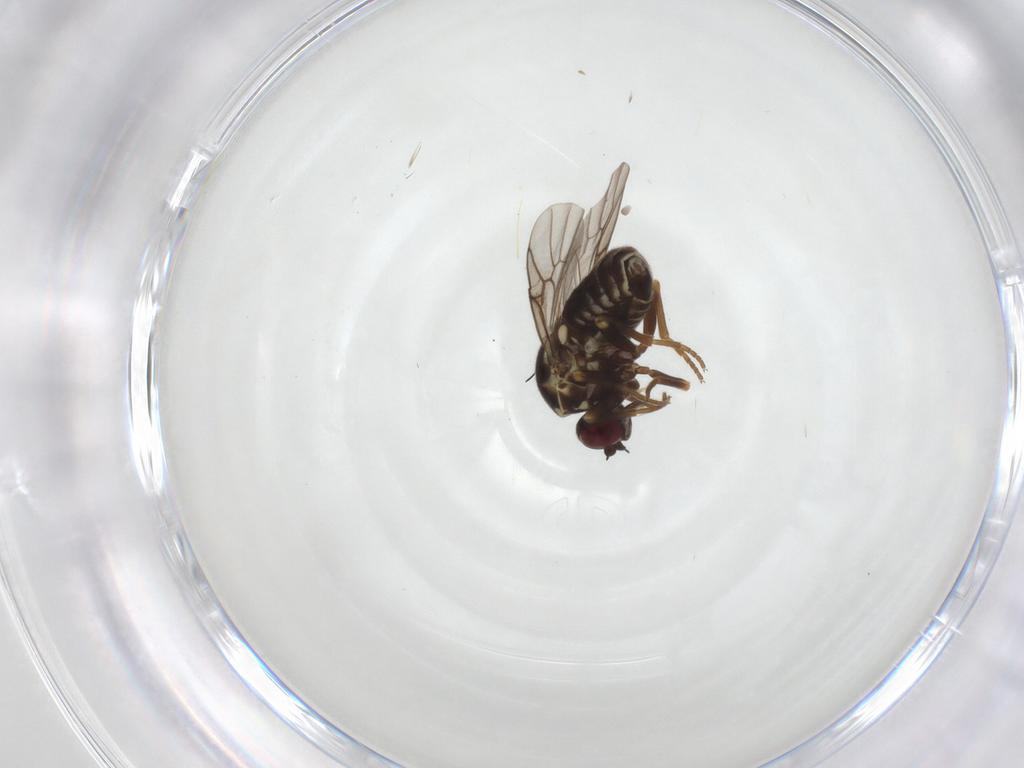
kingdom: Animalia
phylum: Arthropoda
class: Insecta
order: Diptera
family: Bombyliidae
